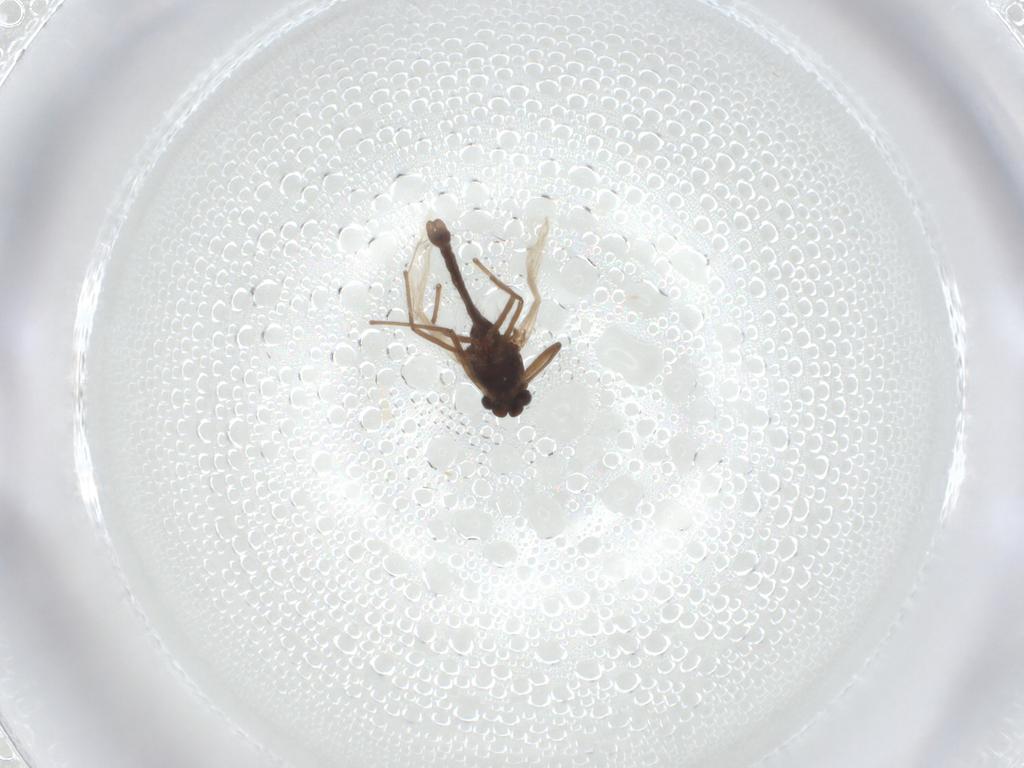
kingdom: Animalia
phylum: Arthropoda
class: Insecta
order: Diptera
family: Chironomidae
